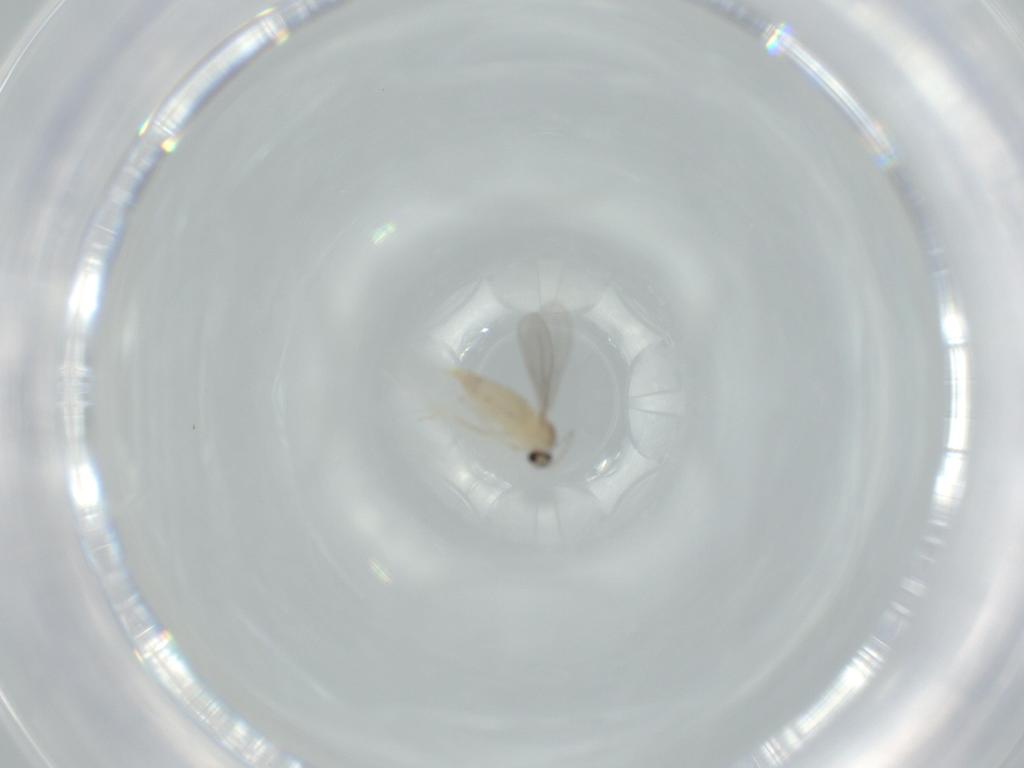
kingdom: Animalia
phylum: Arthropoda
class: Insecta
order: Diptera
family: Cecidomyiidae
